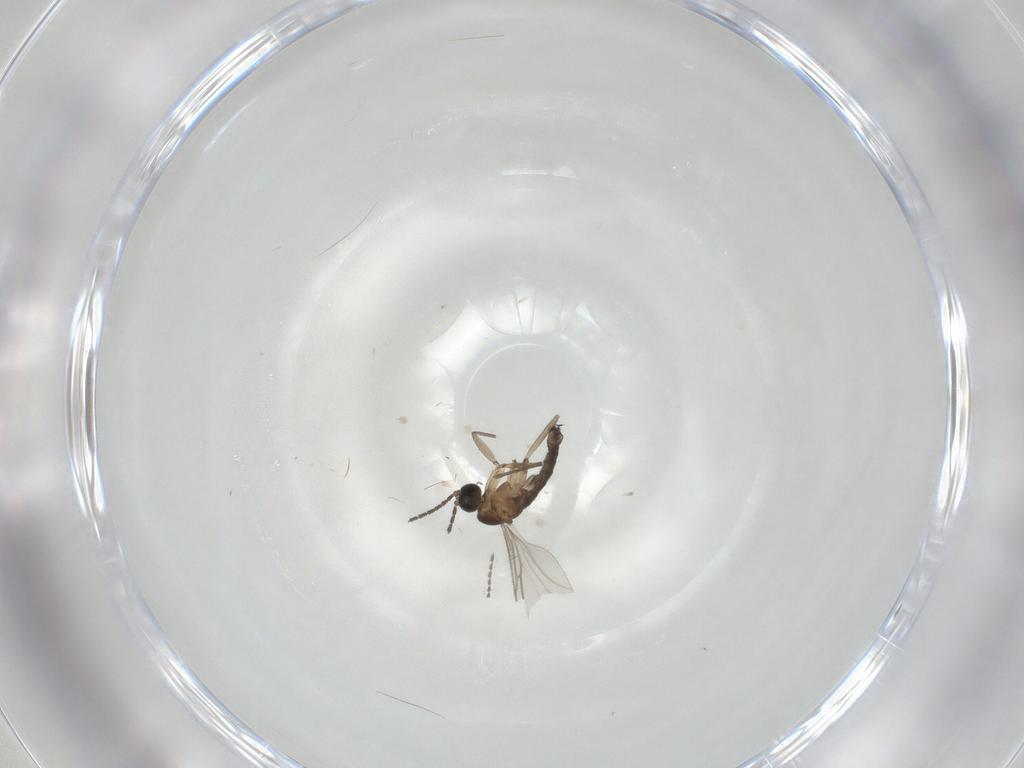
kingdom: Animalia
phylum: Arthropoda
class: Insecta
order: Diptera
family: Sciaridae
